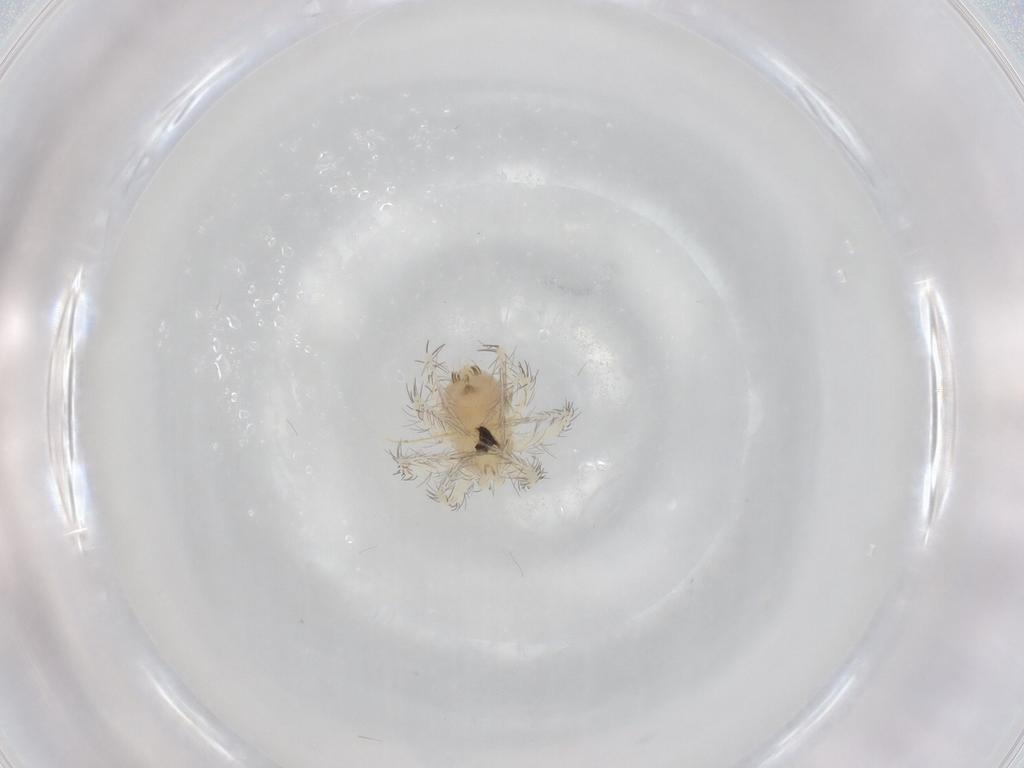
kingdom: Animalia
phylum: Arthropoda
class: Arachnida
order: Trombidiformes
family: Anystidae
